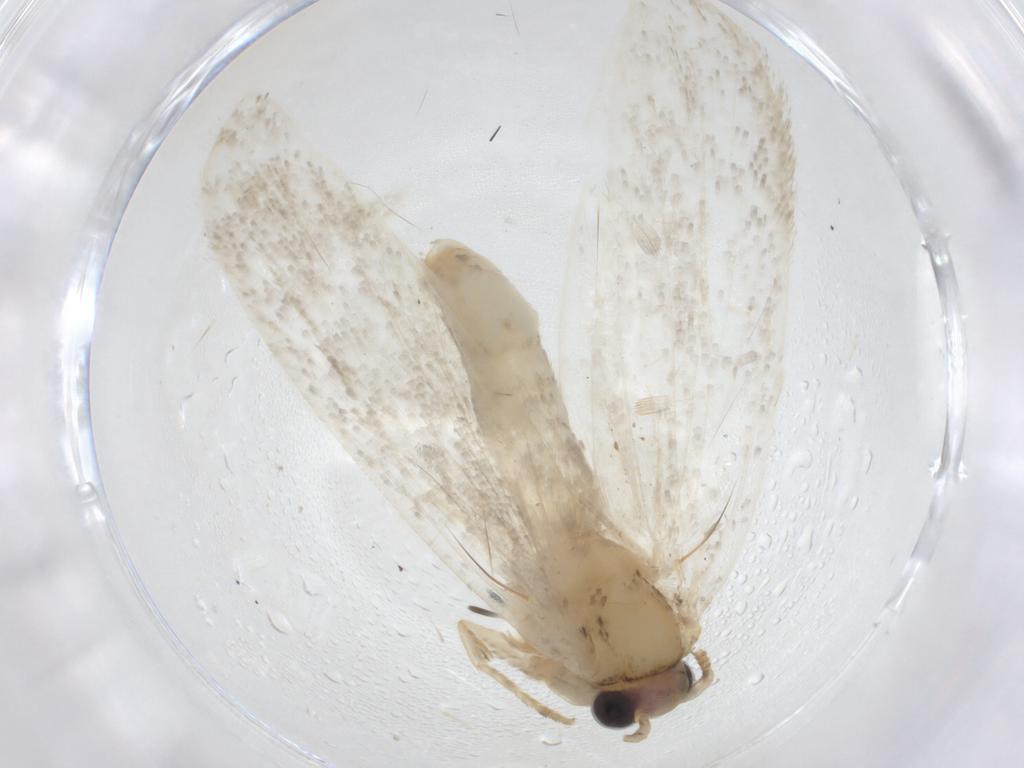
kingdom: Animalia
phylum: Arthropoda
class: Insecta
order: Lepidoptera
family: Tineidae
